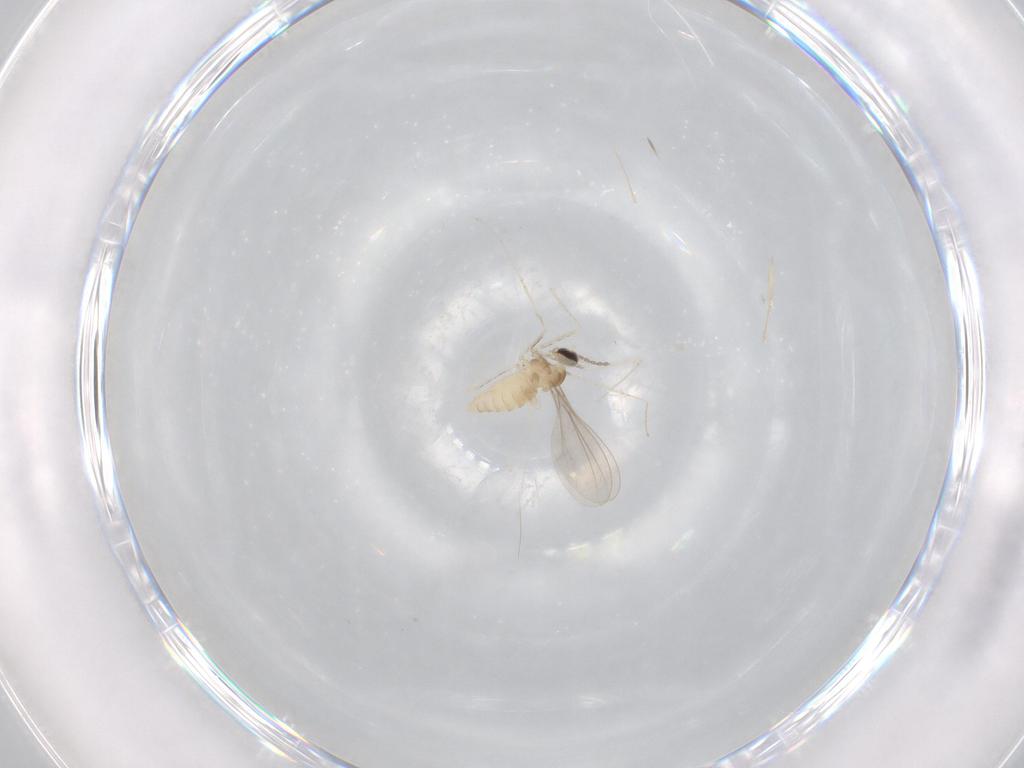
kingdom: Animalia
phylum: Arthropoda
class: Insecta
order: Diptera
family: Cecidomyiidae
